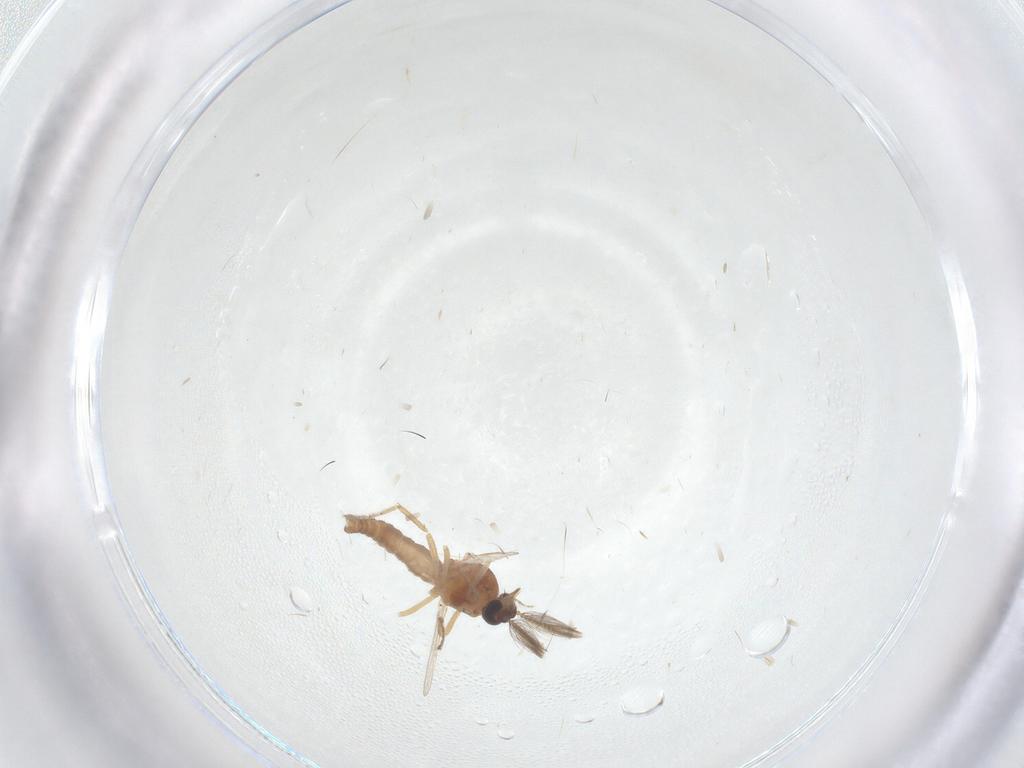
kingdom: Animalia
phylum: Arthropoda
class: Insecta
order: Diptera
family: Ceratopogonidae
